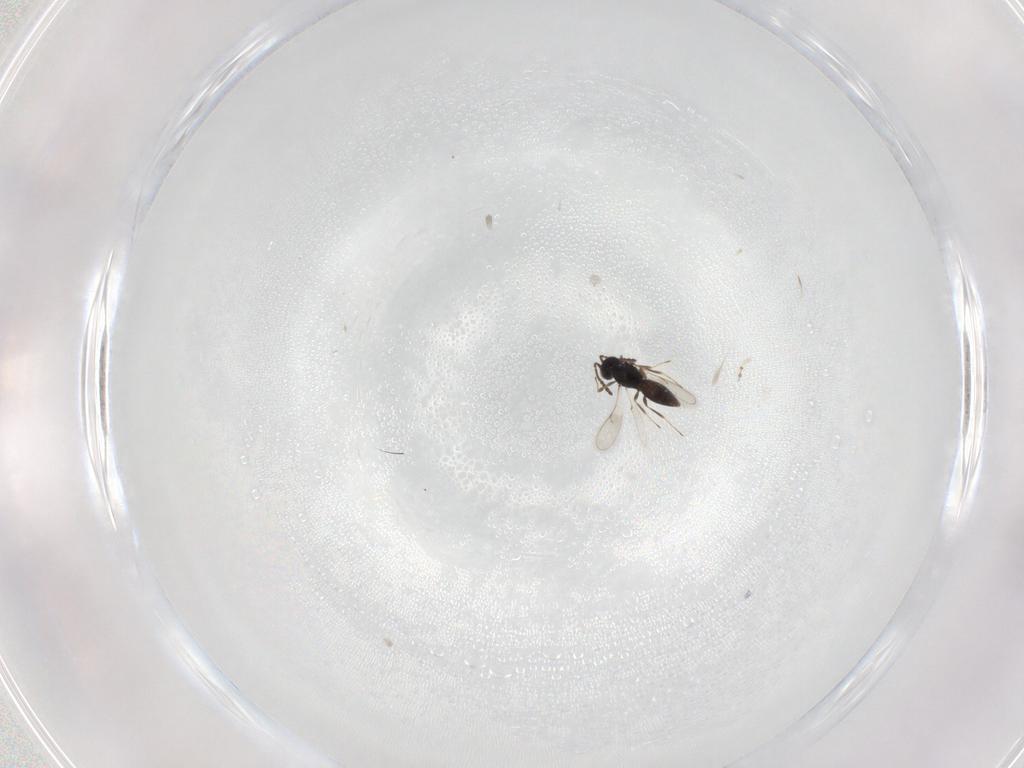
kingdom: Animalia
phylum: Arthropoda
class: Insecta
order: Hymenoptera
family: Scelionidae
